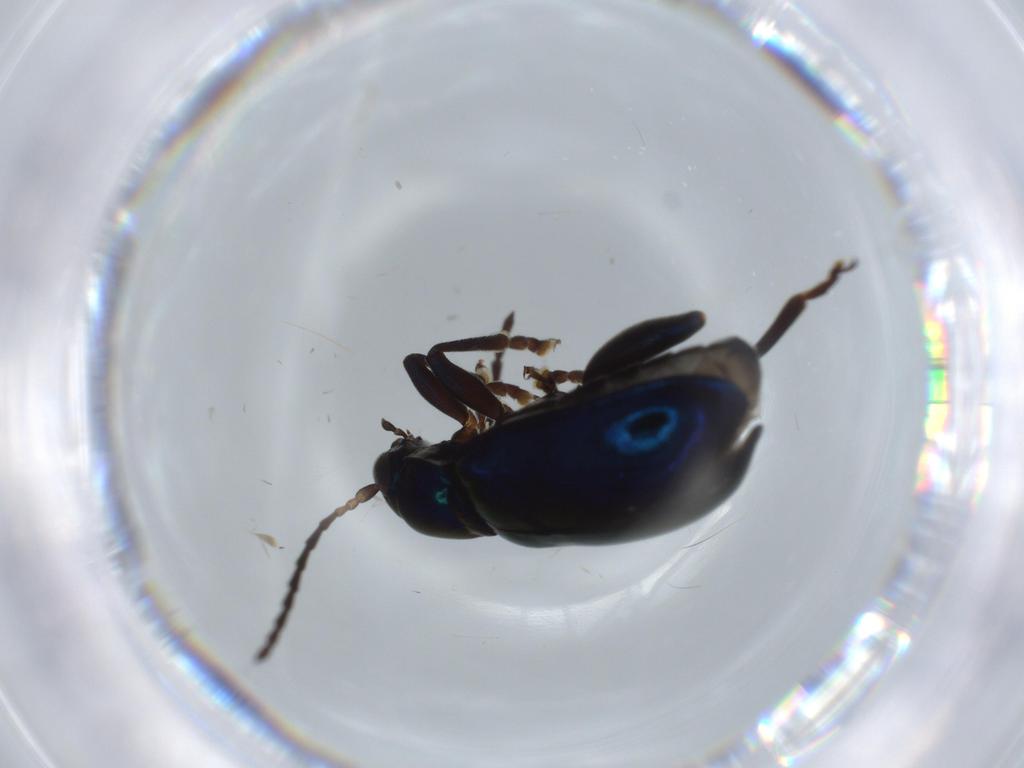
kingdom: Animalia
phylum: Arthropoda
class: Insecta
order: Coleoptera
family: Chrysomelidae
